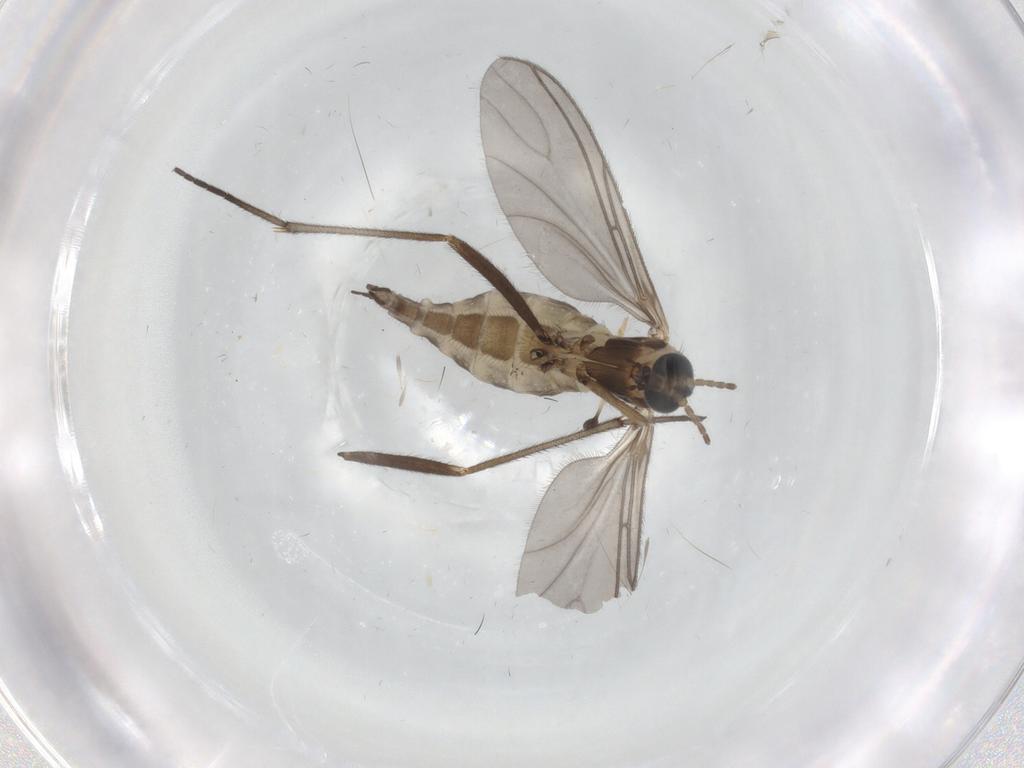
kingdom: Animalia
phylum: Arthropoda
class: Insecta
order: Diptera
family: Sciaridae
